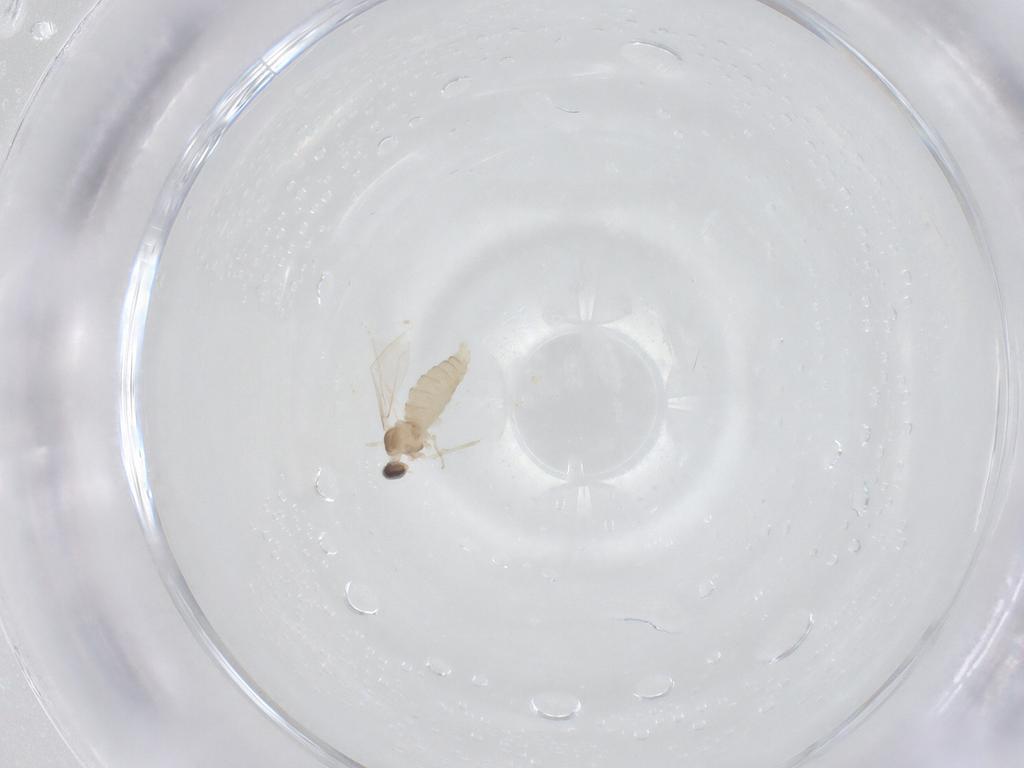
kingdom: Animalia
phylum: Arthropoda
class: Insecta
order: Diptera
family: Cecidomyiidae
